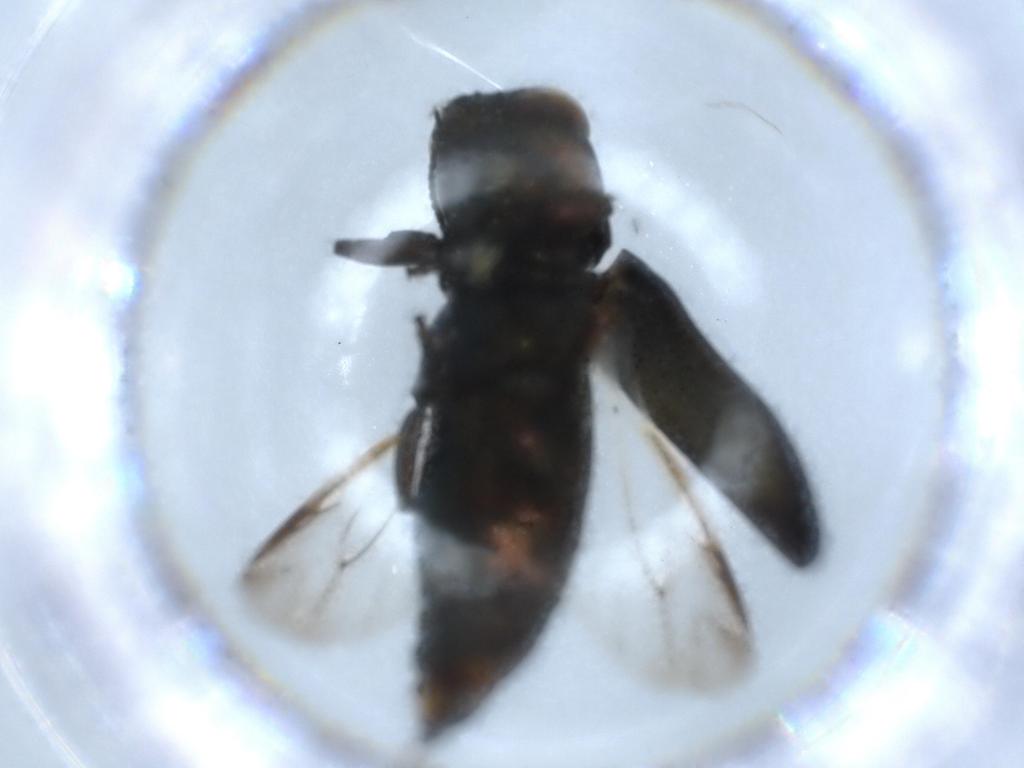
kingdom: Animalia
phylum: Arthropoda
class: Insecta
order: Coleoptera
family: Buprestidae
